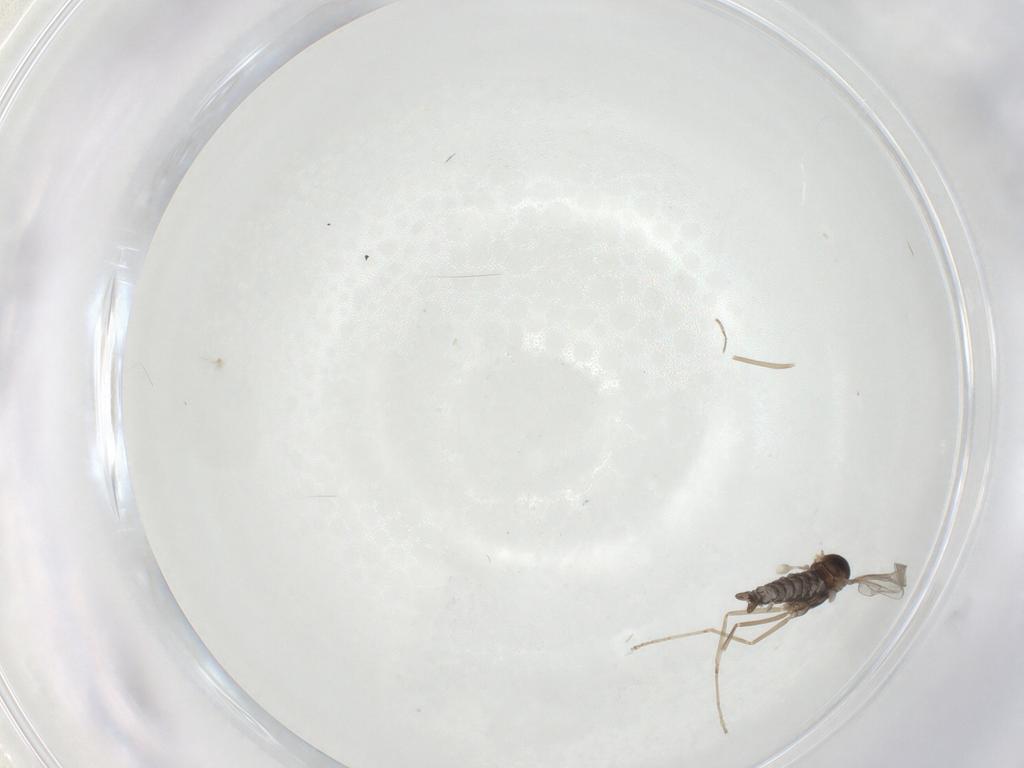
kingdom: Animalia
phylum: Arthropoda
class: Insecta
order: Diptera
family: Cecidomyiidae
